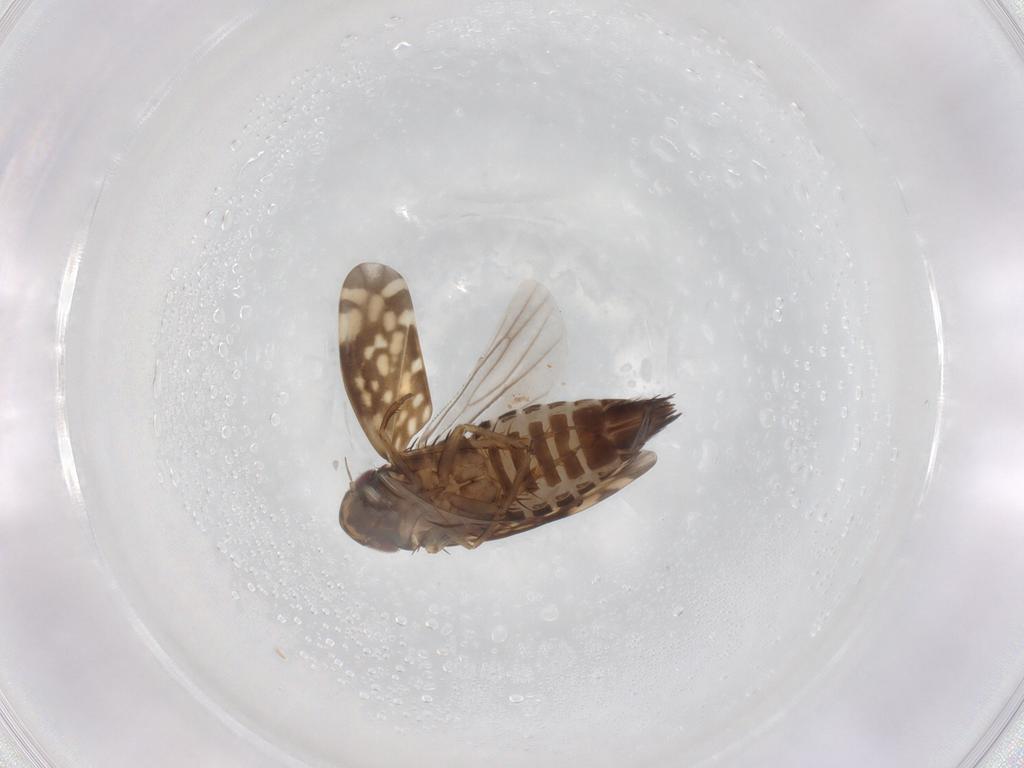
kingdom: Animalia
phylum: Arthropoda
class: Insecta
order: Hemiptera
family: Cicadellidae
